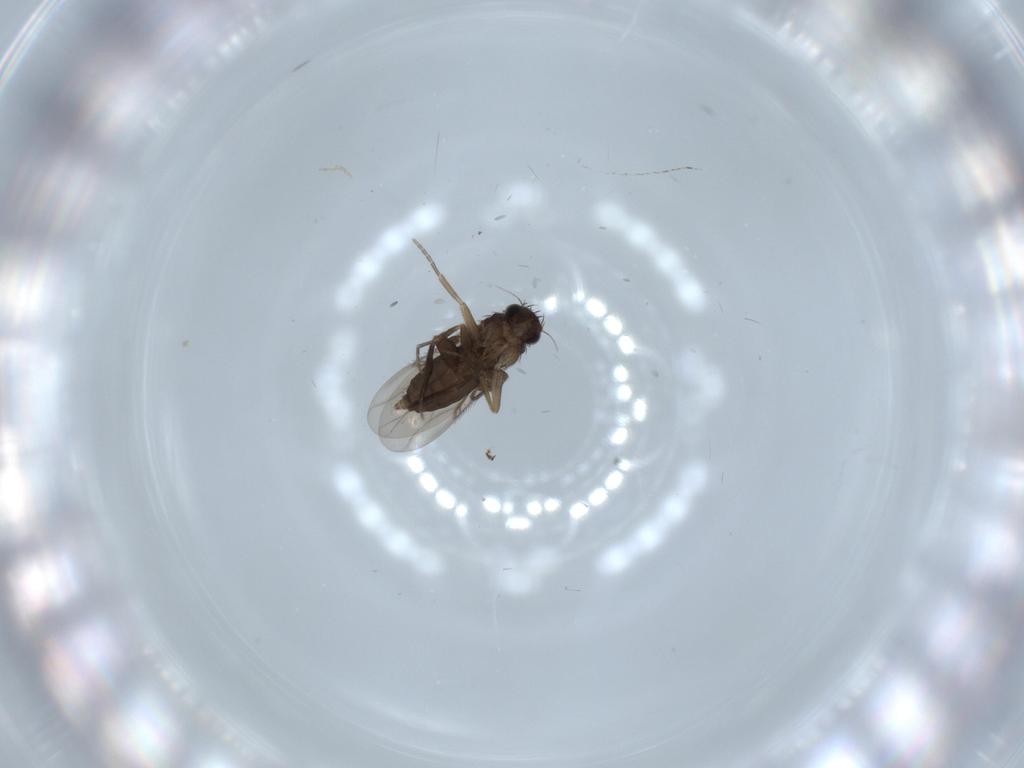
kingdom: Animalia
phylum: Arthropoda
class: Insecta
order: Diptera
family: Phoridae
